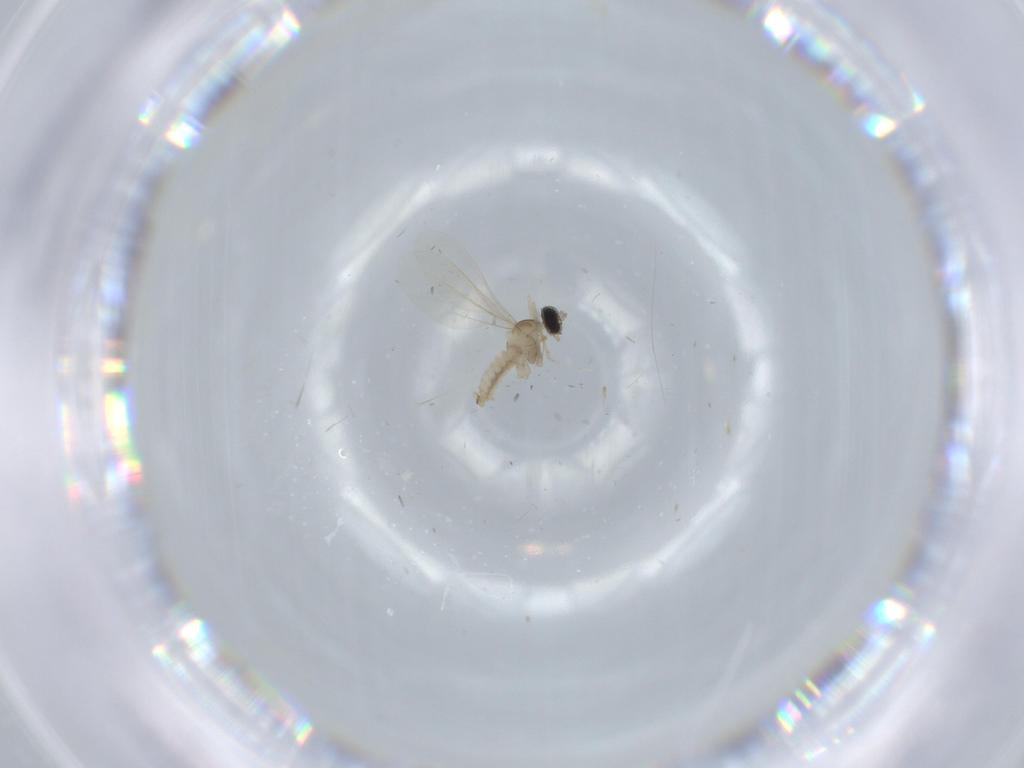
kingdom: Animalia
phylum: Arthropoda
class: Insecta
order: Diptera
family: Cecidomyiidae
